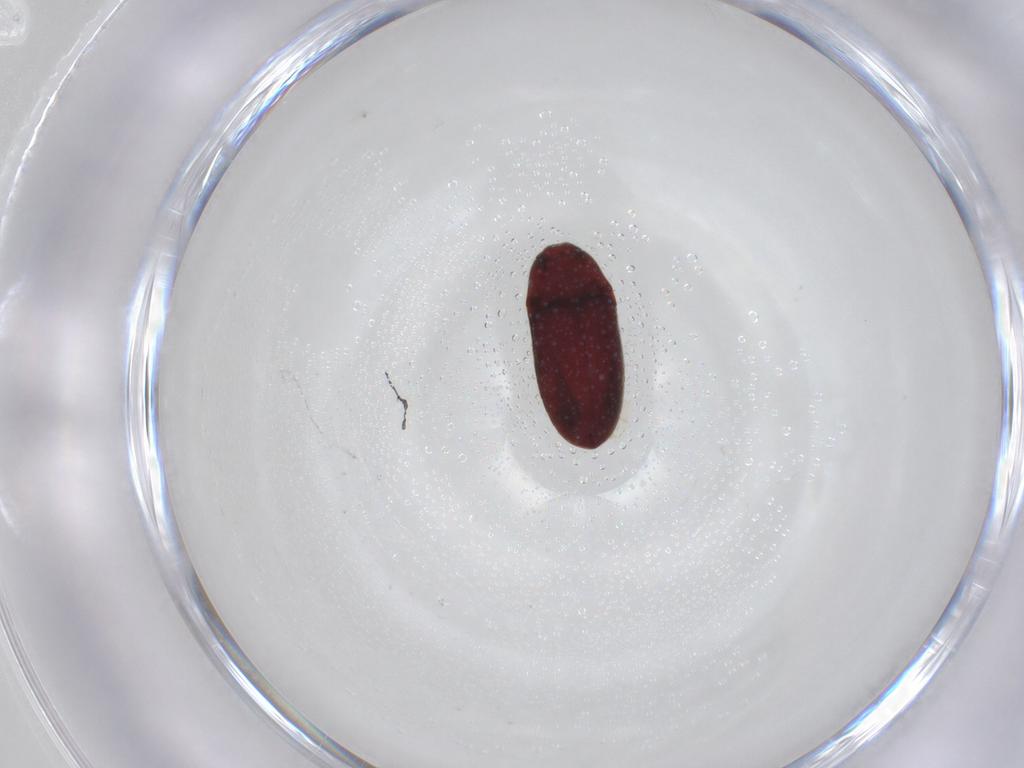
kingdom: Animalia
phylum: Arthropoda
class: Insecta
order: Coleoptera
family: Throscidae
